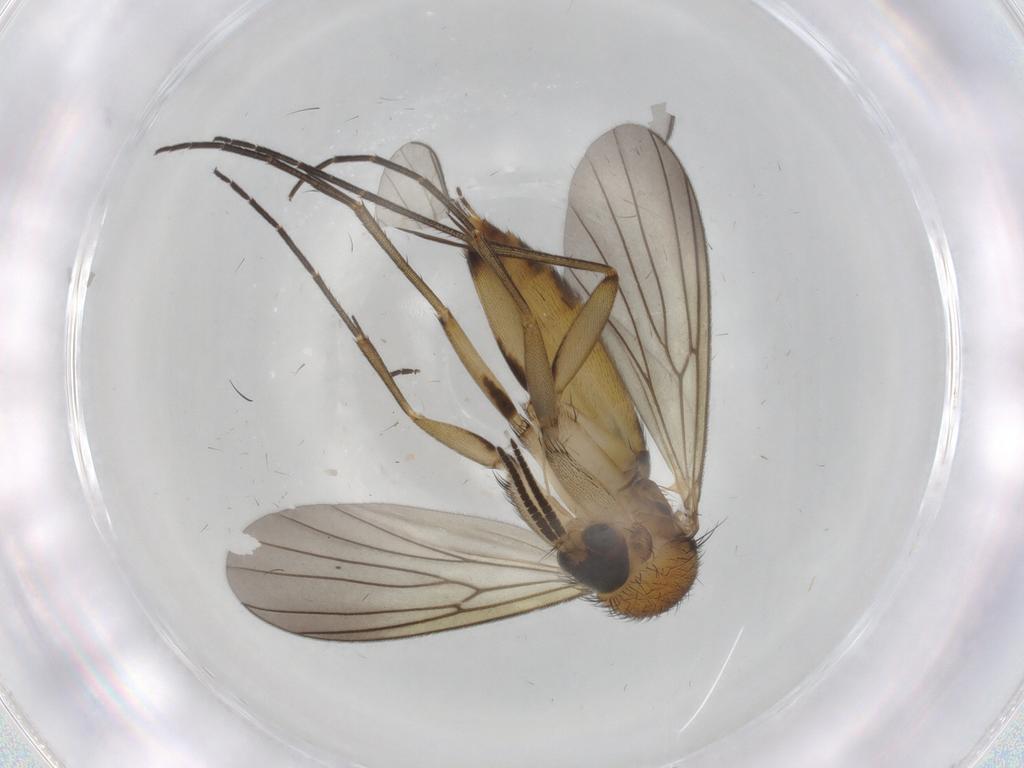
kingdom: Animalia
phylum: Arthropoda
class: Insecta
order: Diptera
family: Mycetophilidae
